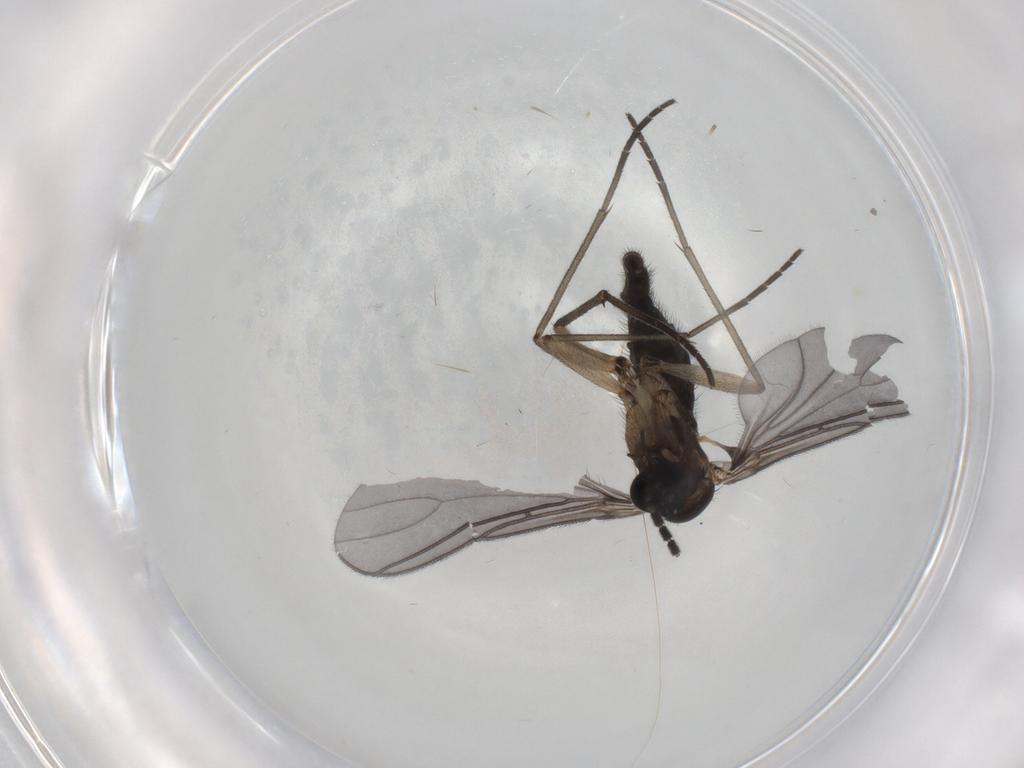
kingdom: Animalia
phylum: Arthropoda
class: Insecta
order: Diptera
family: Sciaridae
